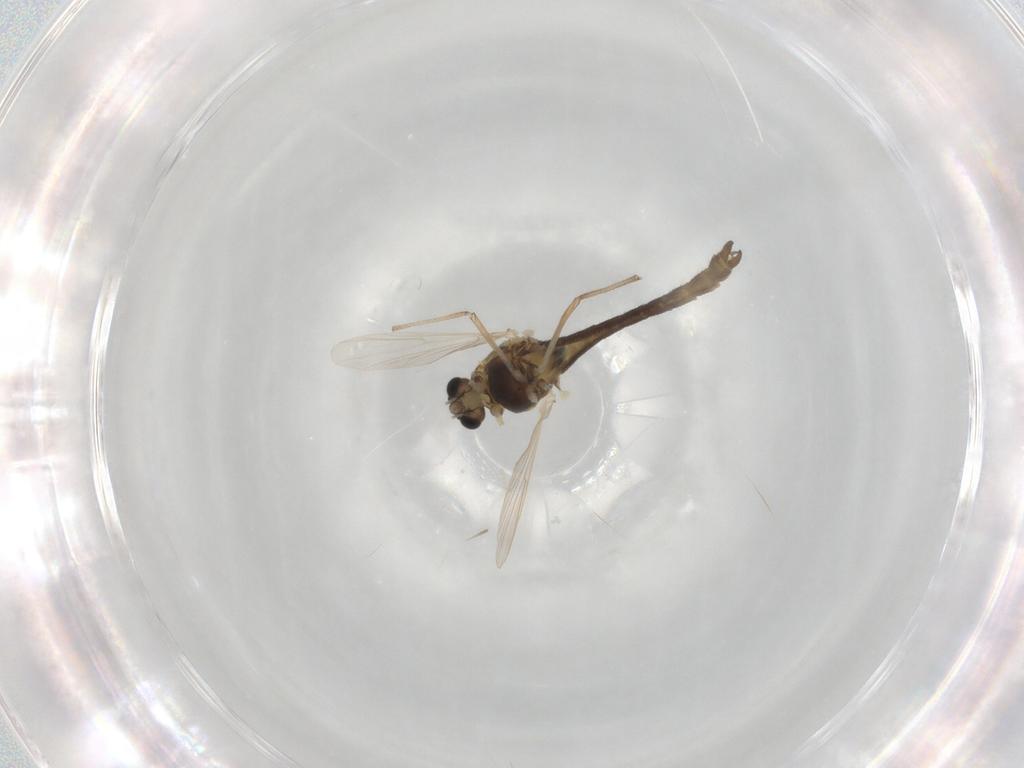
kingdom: Animalia
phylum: Arthropoda
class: Insecta
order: Diptera
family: Chironomidae
